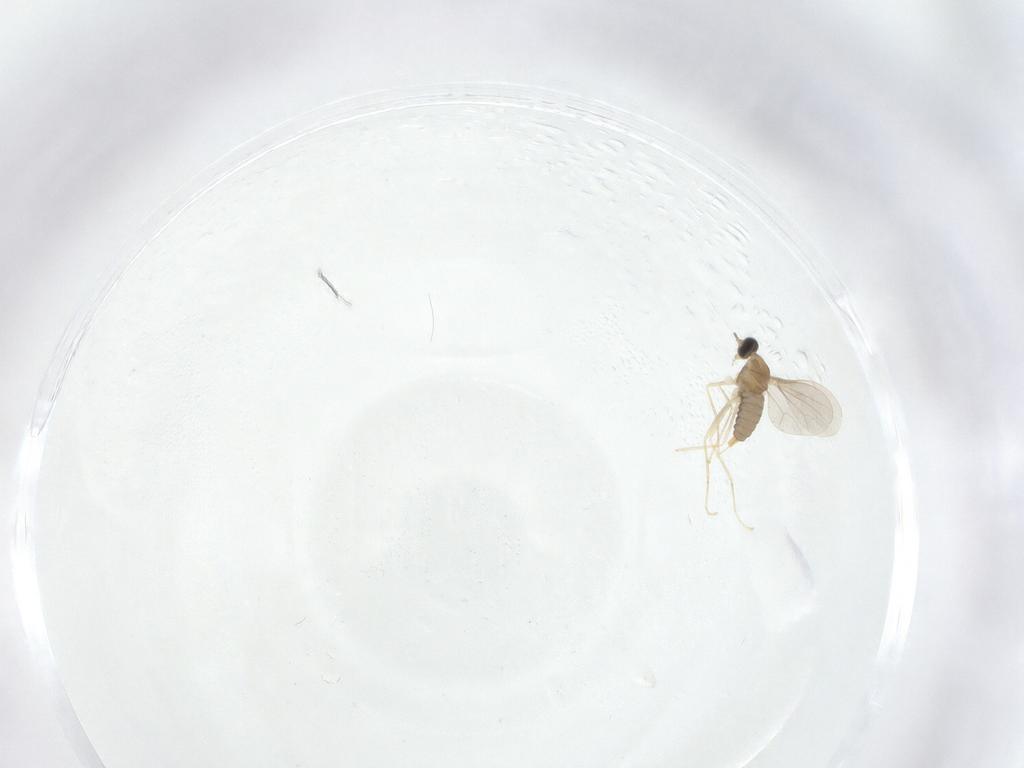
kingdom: Animalia
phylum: Arthropoda
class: Insecta
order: Diptera
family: Cecidomyiidae
